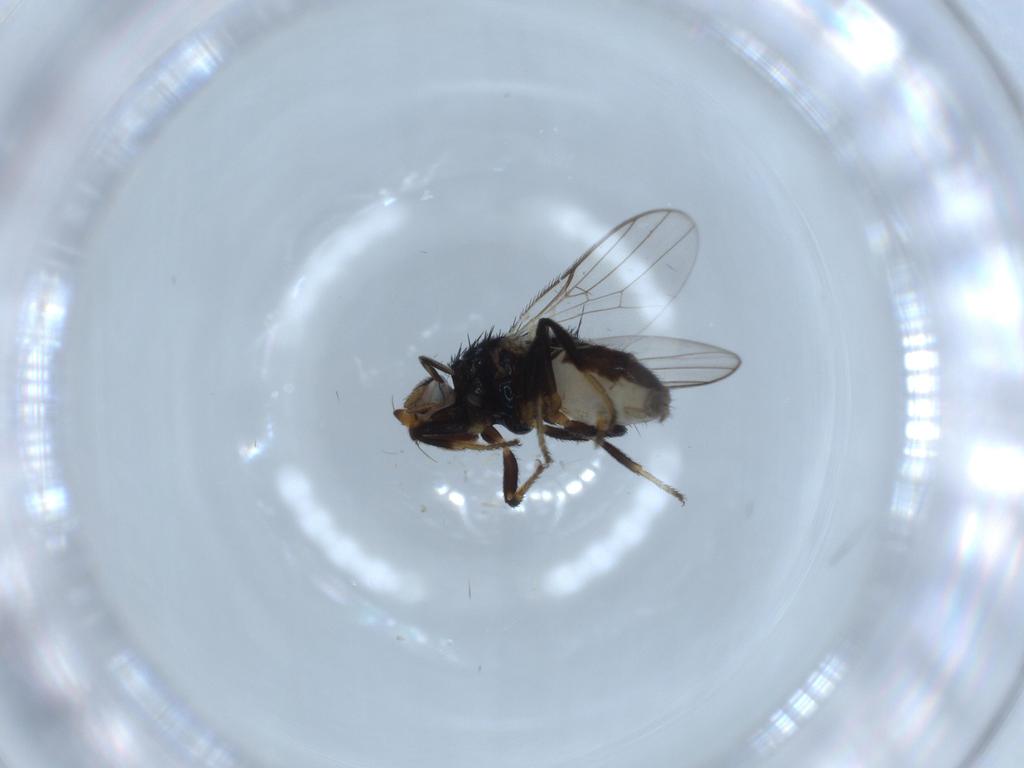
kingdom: Animalia
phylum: Arthropoda
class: Insecta
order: Diptera
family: Chloropidae
